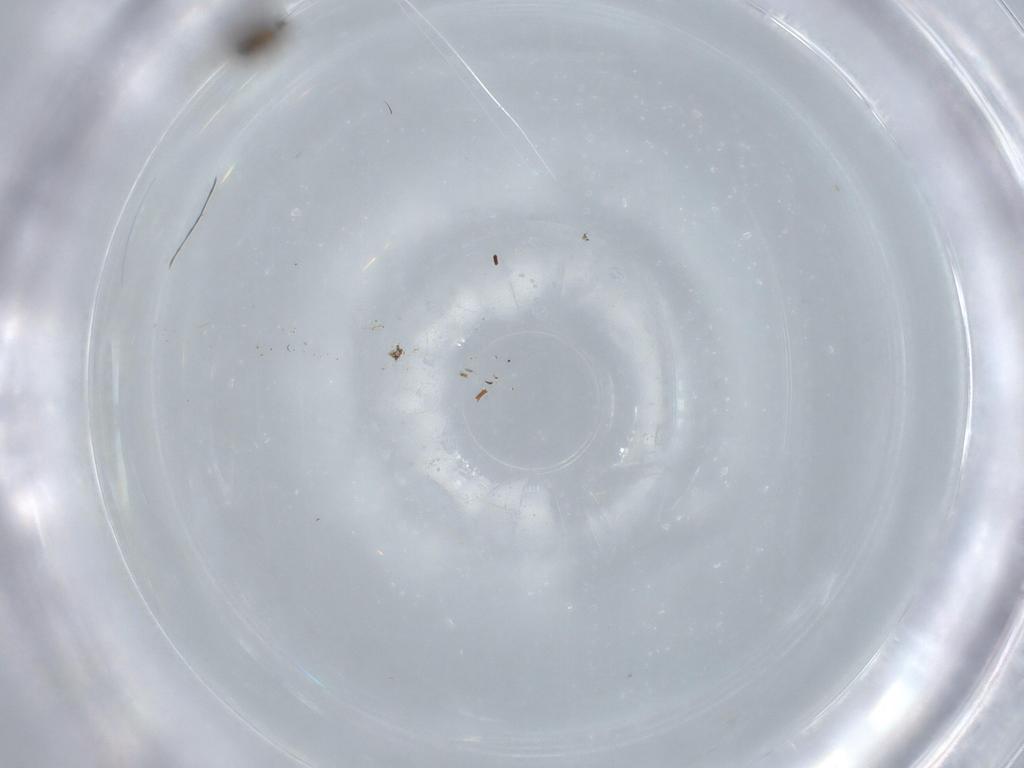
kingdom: Animalia
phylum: Arthropoda
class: Insecta
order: Diptera
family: Cecidomyiidae
